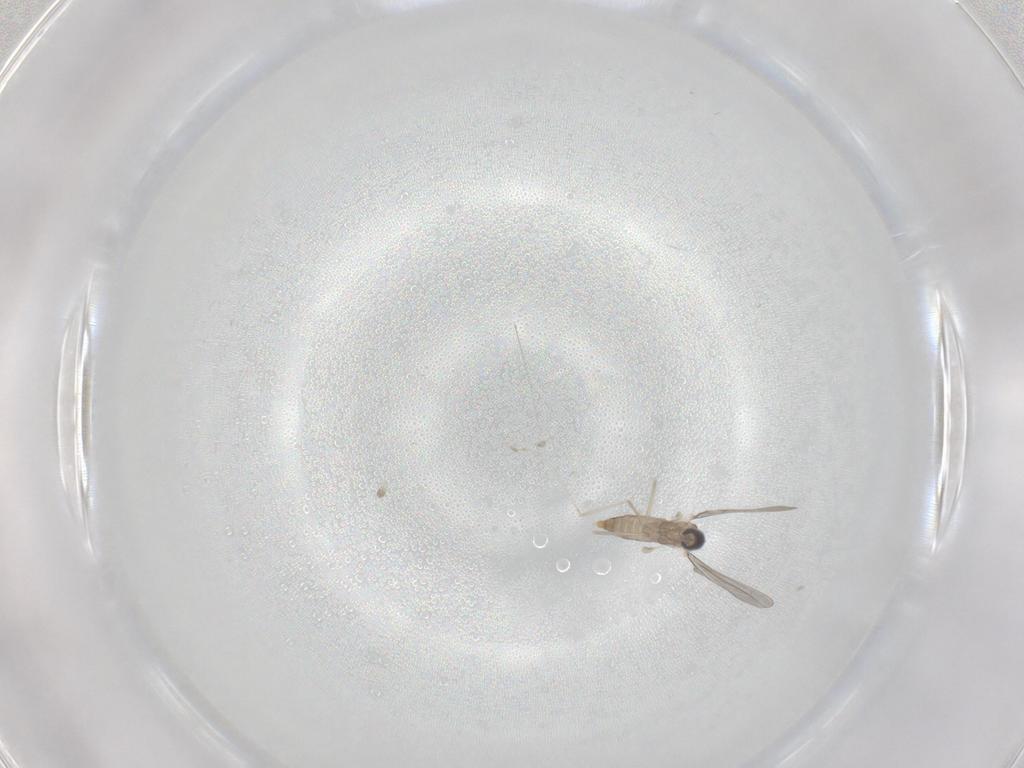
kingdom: Animalia
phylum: Arthropoda
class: Insecta
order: Diptera
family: Cecidomyiidae
